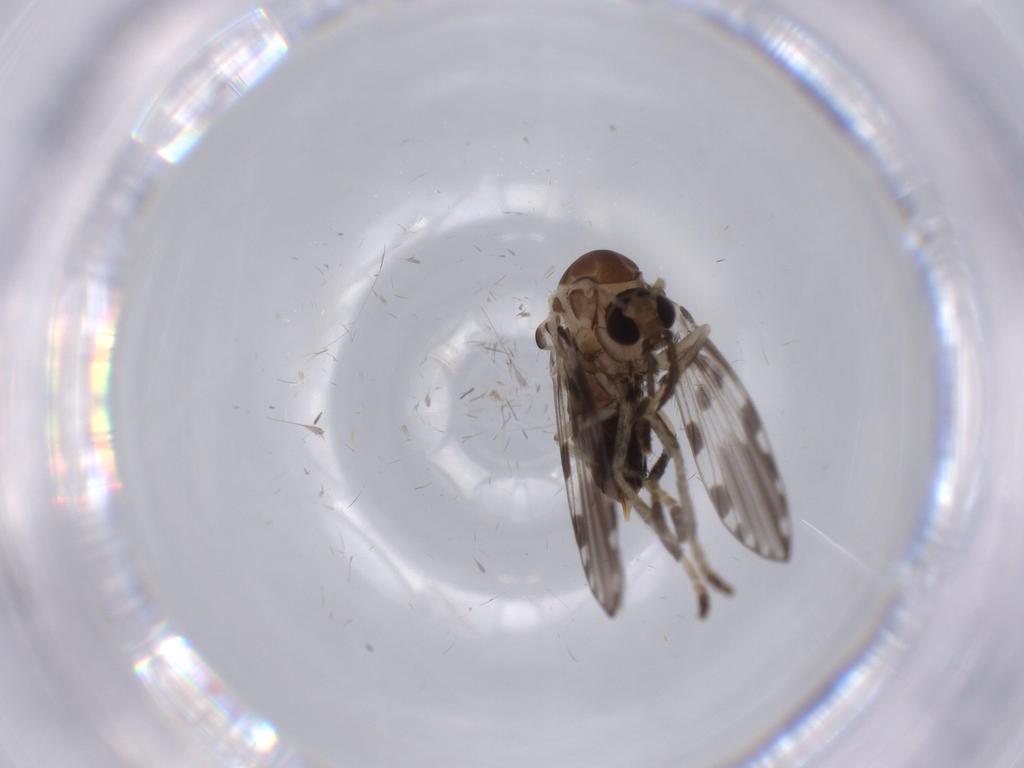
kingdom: Animalia
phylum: Arthropoda
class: Insecta
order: Diptera
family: Psychodidae
